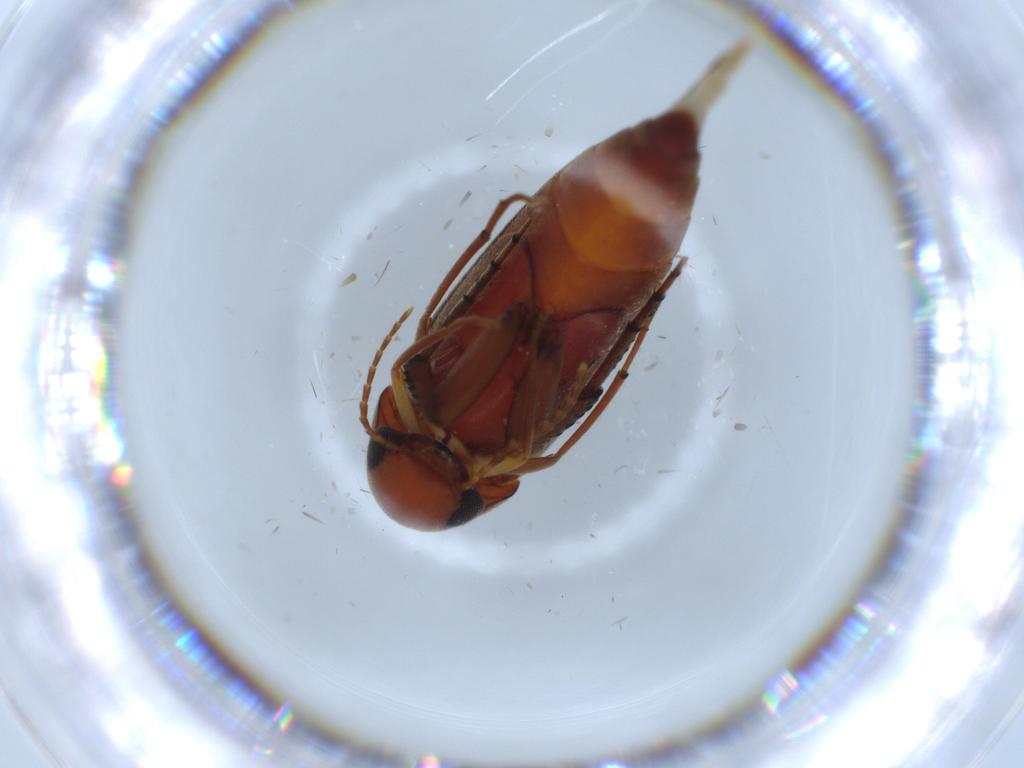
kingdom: Animalia
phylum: Arthropoda
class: Insecta
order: Coleoptera
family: Mordellidae
